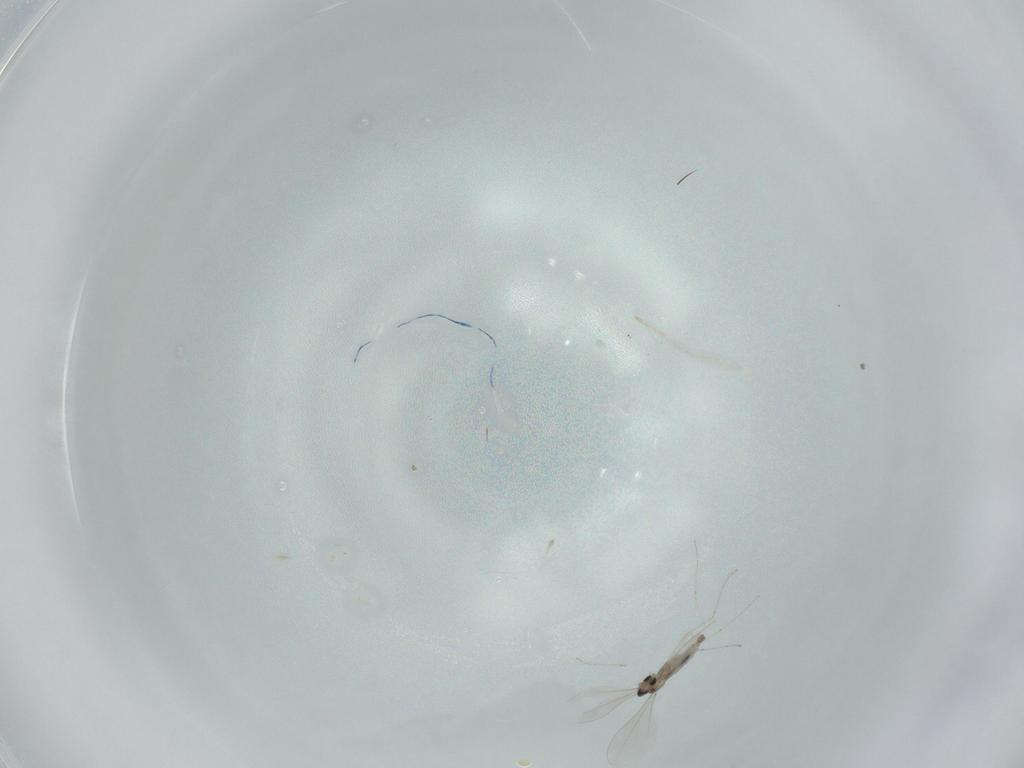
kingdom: Animalia
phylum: Arthropoda
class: Insecta
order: Diptera
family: Cecidomyiidae
